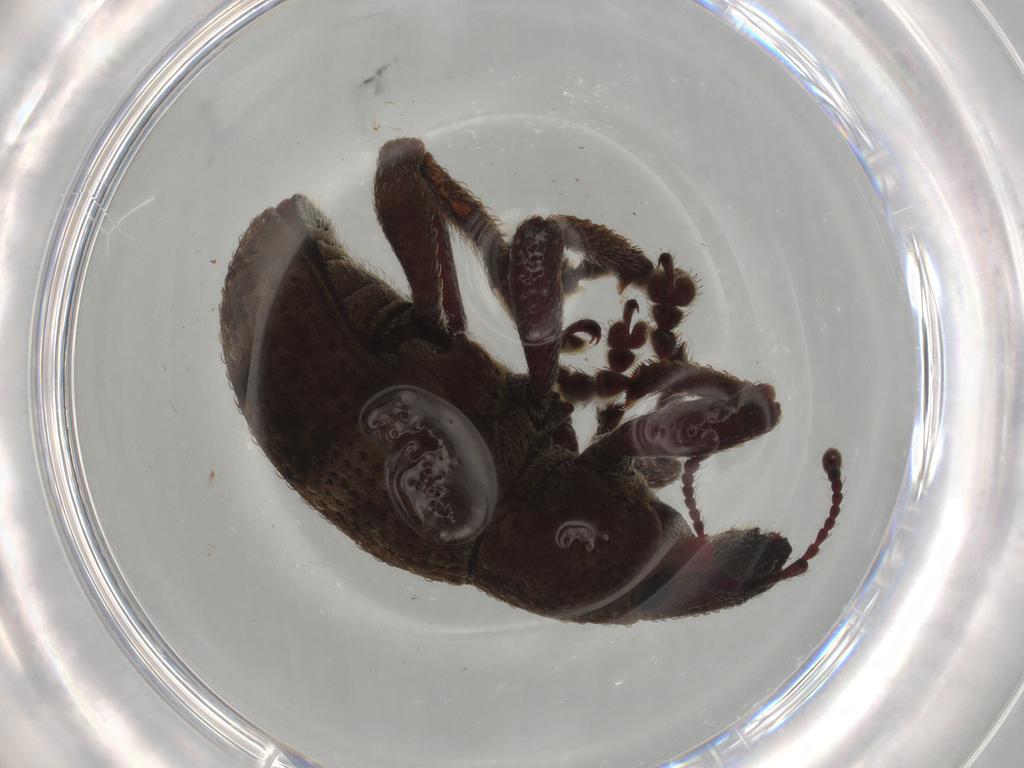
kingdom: Animalia
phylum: Arthropoda
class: Insecta
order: Coleoptera
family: Curculionidae
